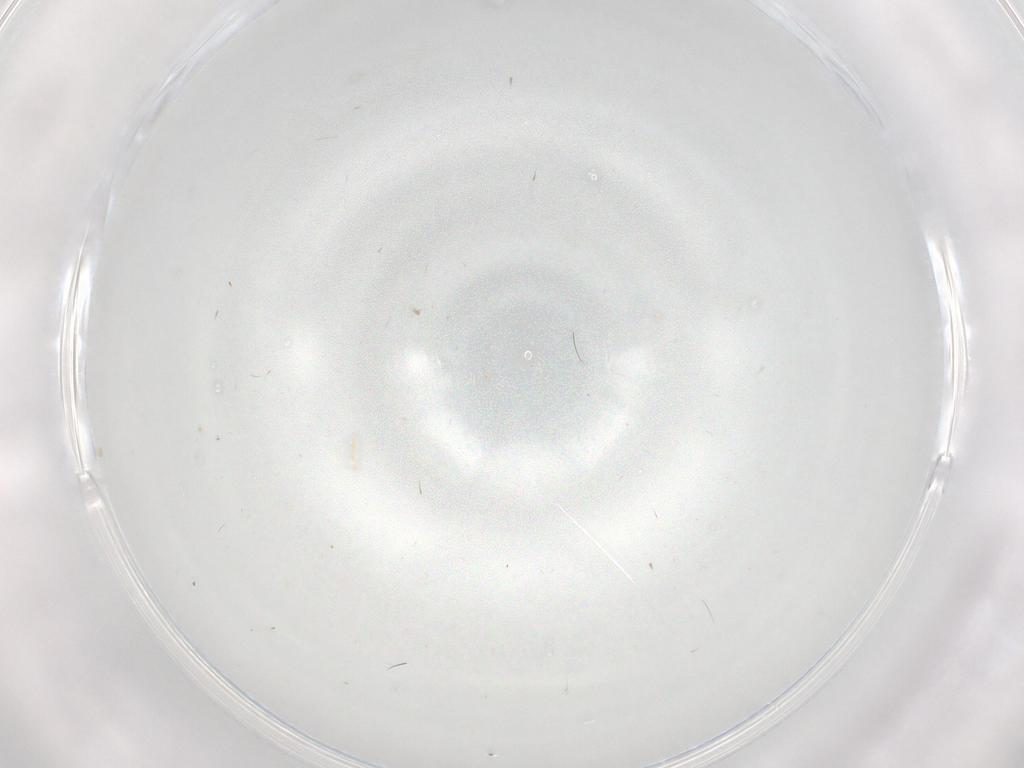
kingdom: Animalia
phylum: Arthropoda
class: Insecta
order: Diptera
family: Cecidomyiidae
